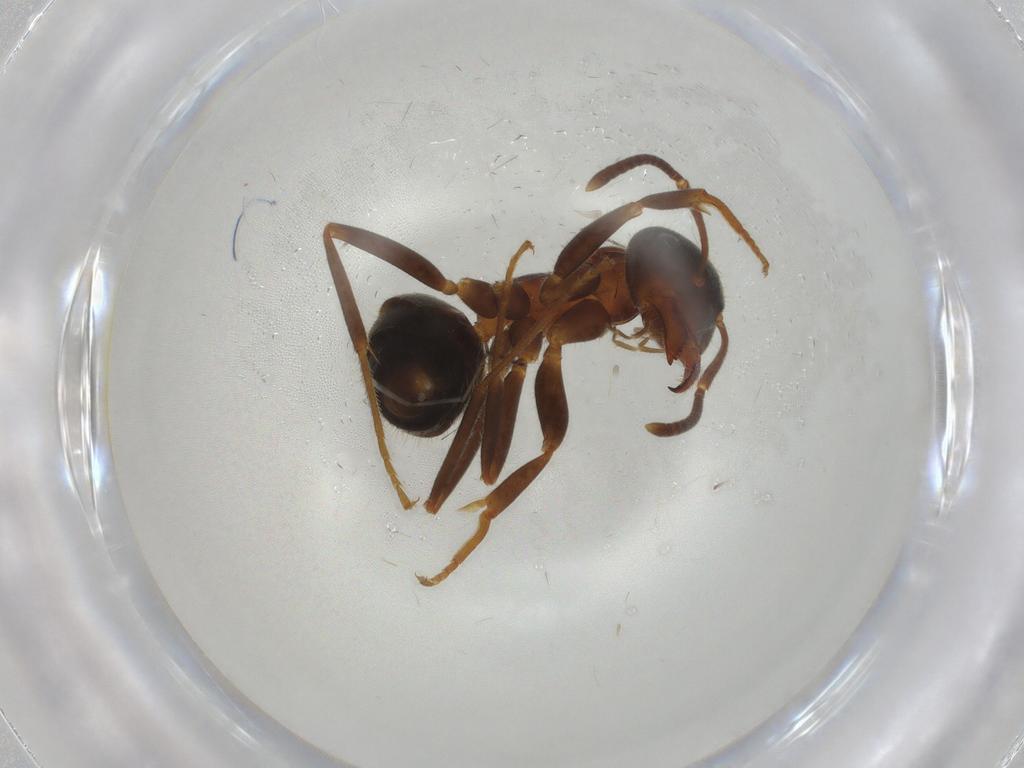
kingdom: Animalia
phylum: Arthropoda
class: Insecta
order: Hymenoptera
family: Formicidae
